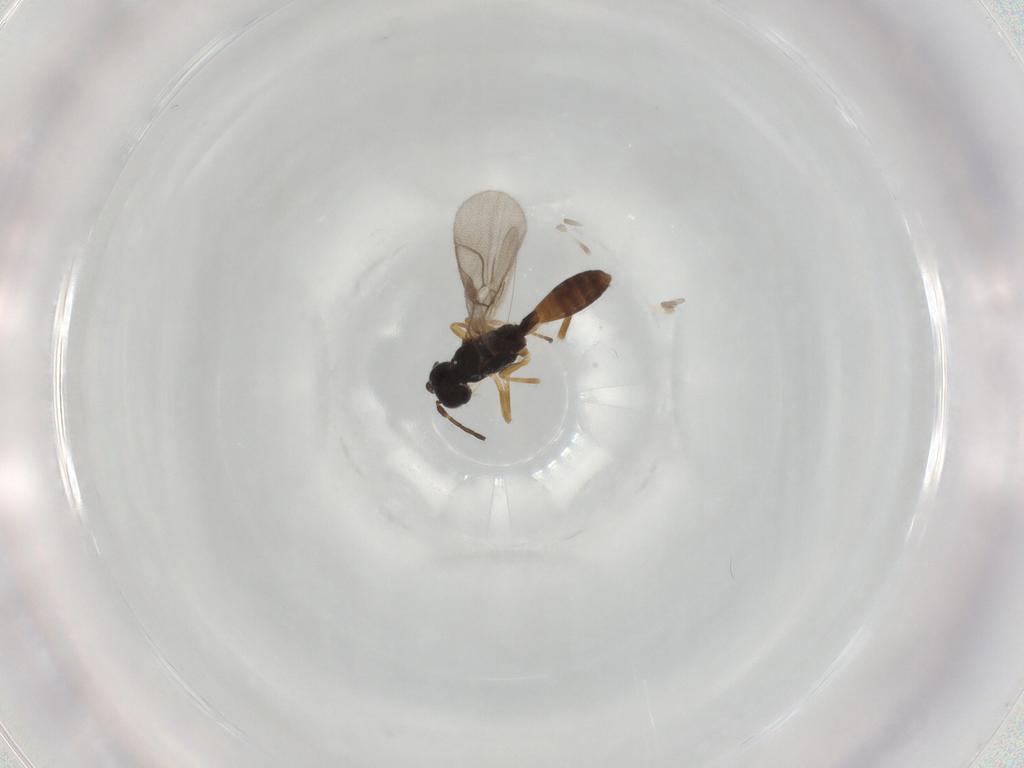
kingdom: Animalia
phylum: Arthropoda
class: Insecta
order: Hymenoptera
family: Braconidae
